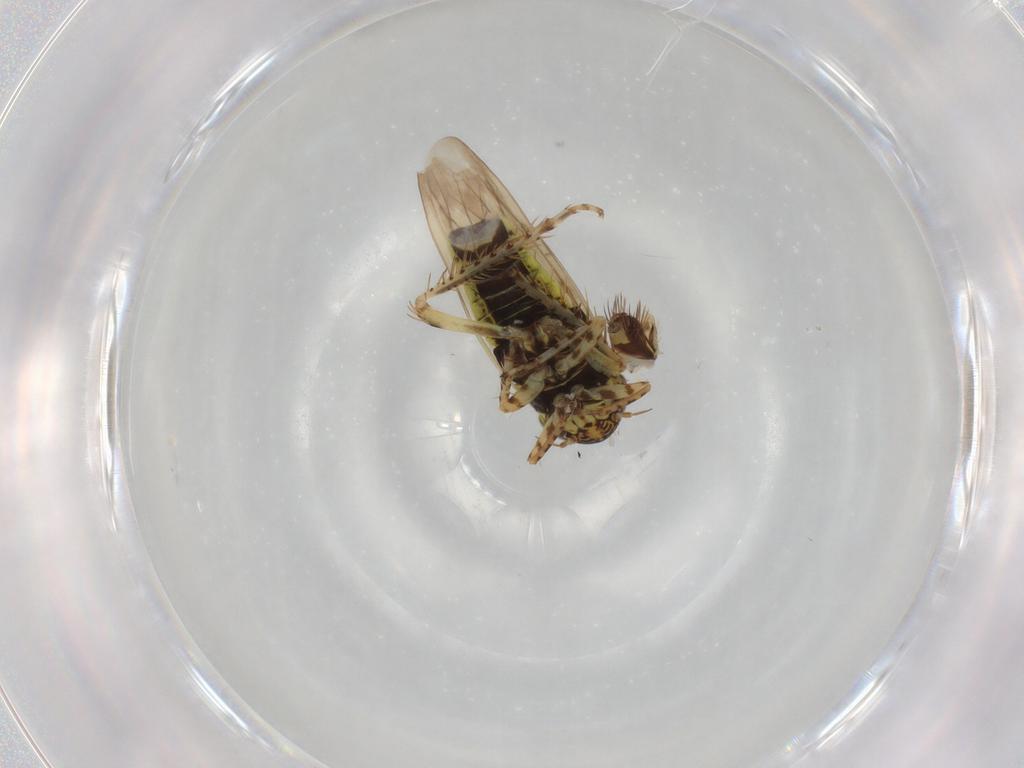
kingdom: Animalia
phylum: Arthropoda
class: Insecta
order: Hemiptera
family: Cicadellidae
